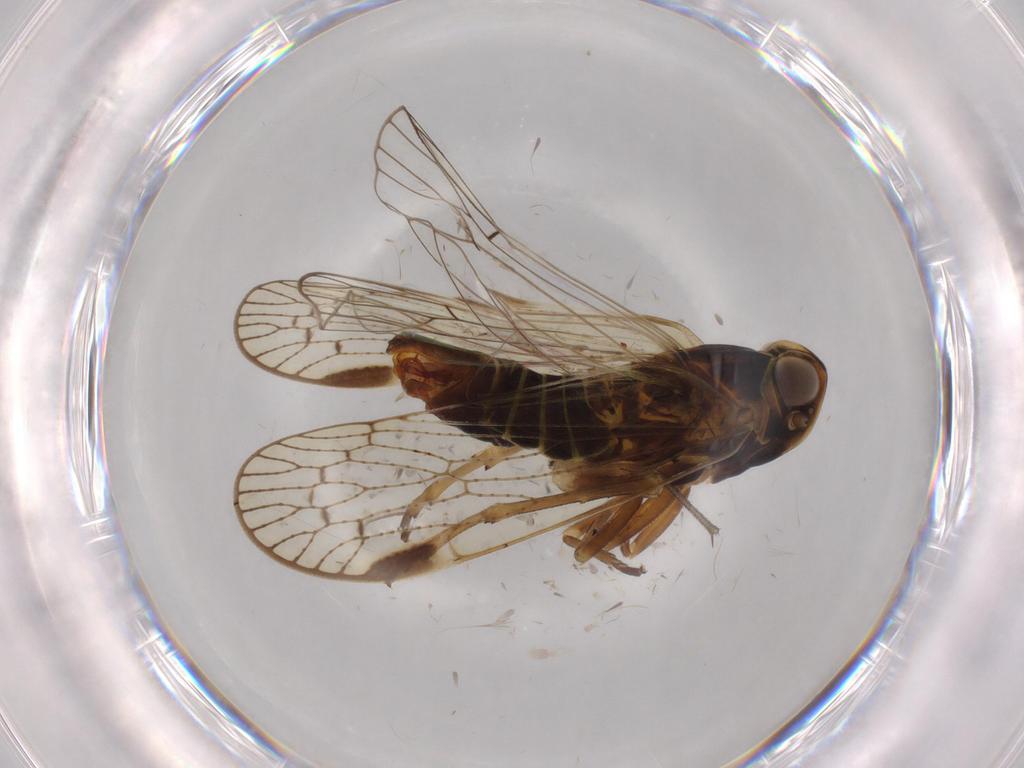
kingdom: Animalia
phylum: Arthropoda
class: Insecta
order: Hemiptera
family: Cixiidae
